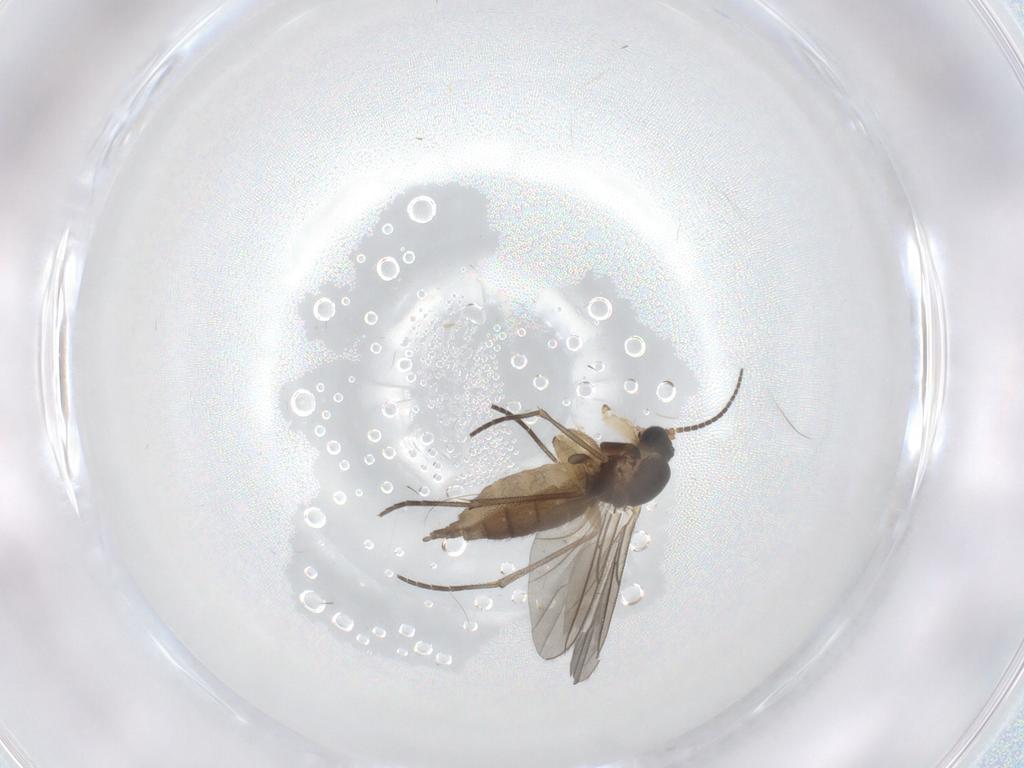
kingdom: Animalia
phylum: Arthropoda
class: Insecta
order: Diptera
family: Sciaridae
